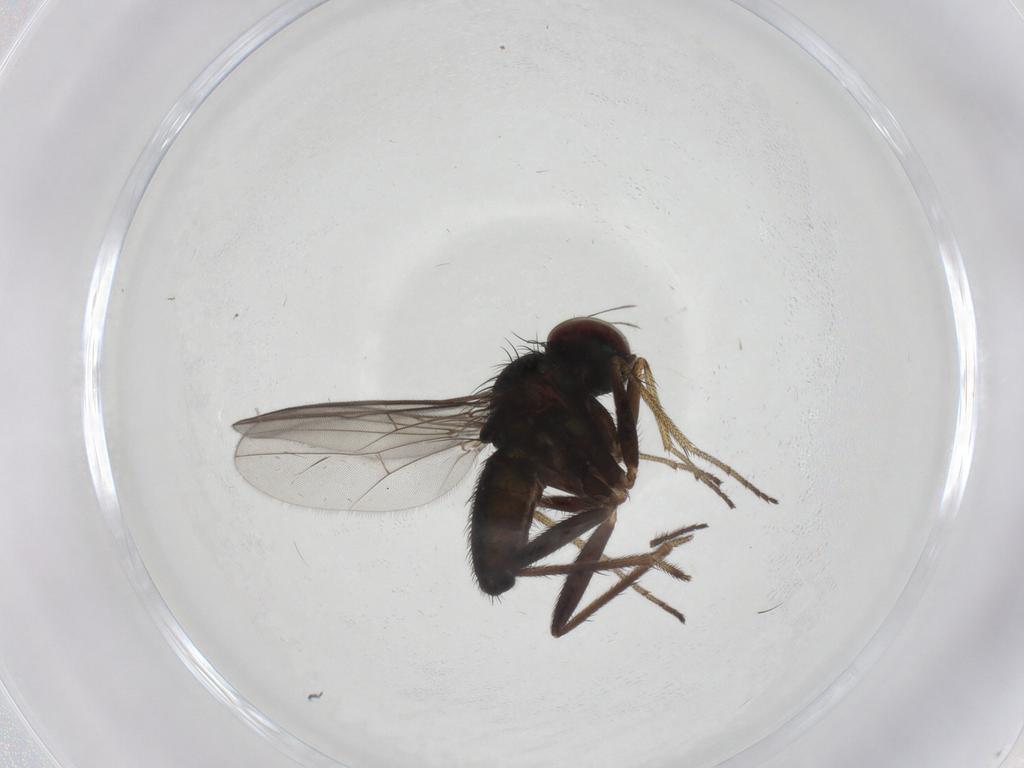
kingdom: Animalia
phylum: Arthropoda
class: Insecta
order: Diptera
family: Dolichopodidae
